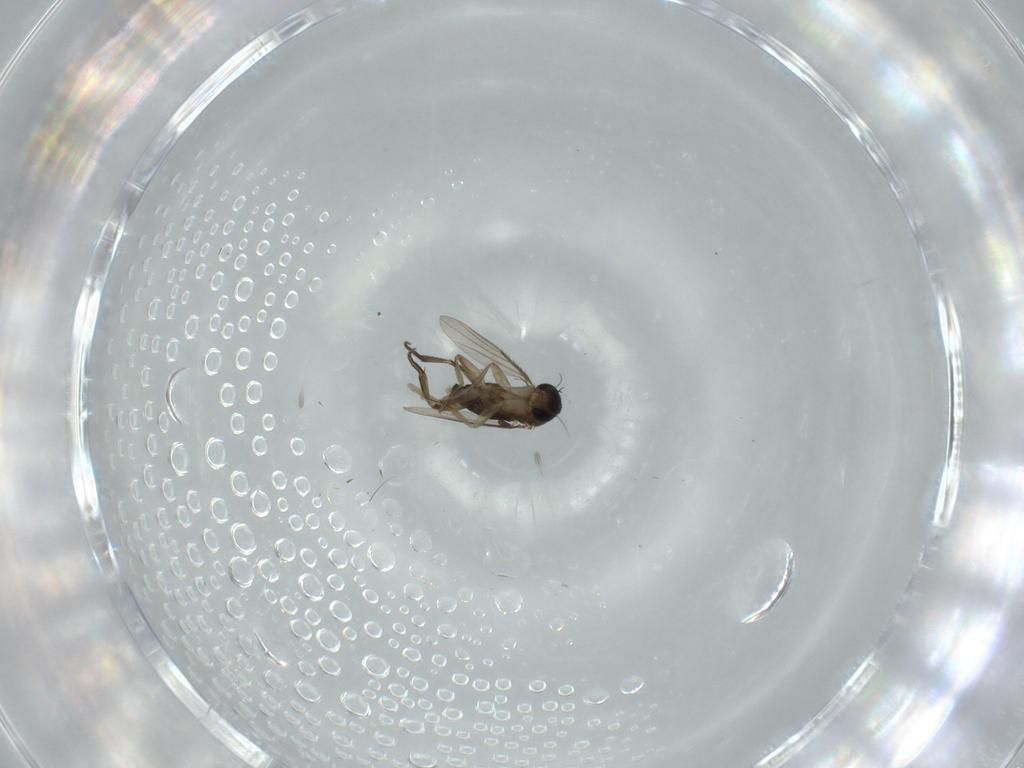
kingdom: Animalia
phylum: Arthropoda
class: Insecta
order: Diptera
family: Phoridae
